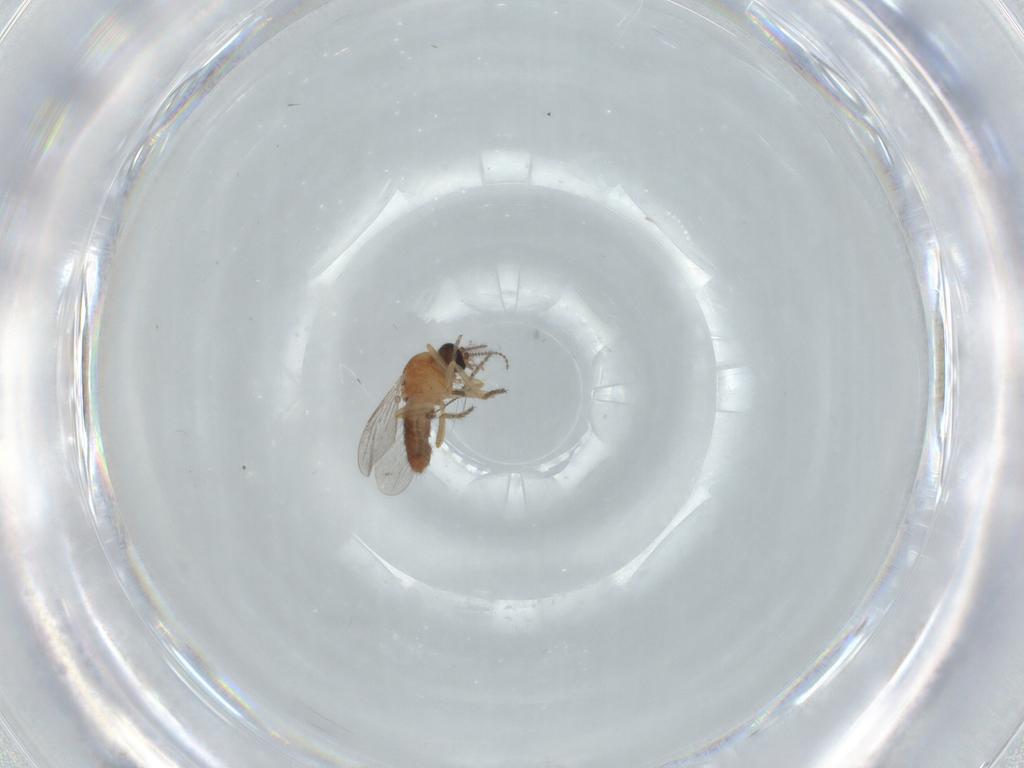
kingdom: Animalia
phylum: Arthropoda
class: Insecta
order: Diptera
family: Ceratopogonidae
